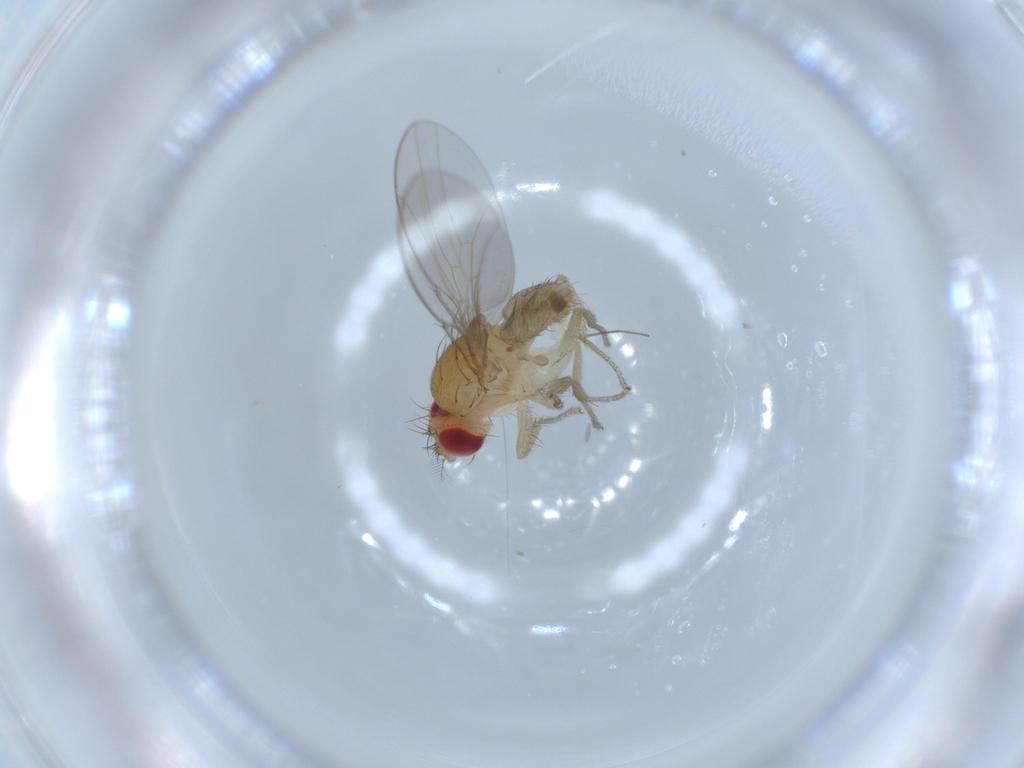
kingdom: Animalia
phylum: Arthropoda
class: Insecta
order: Diptera
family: Drosophilidae
